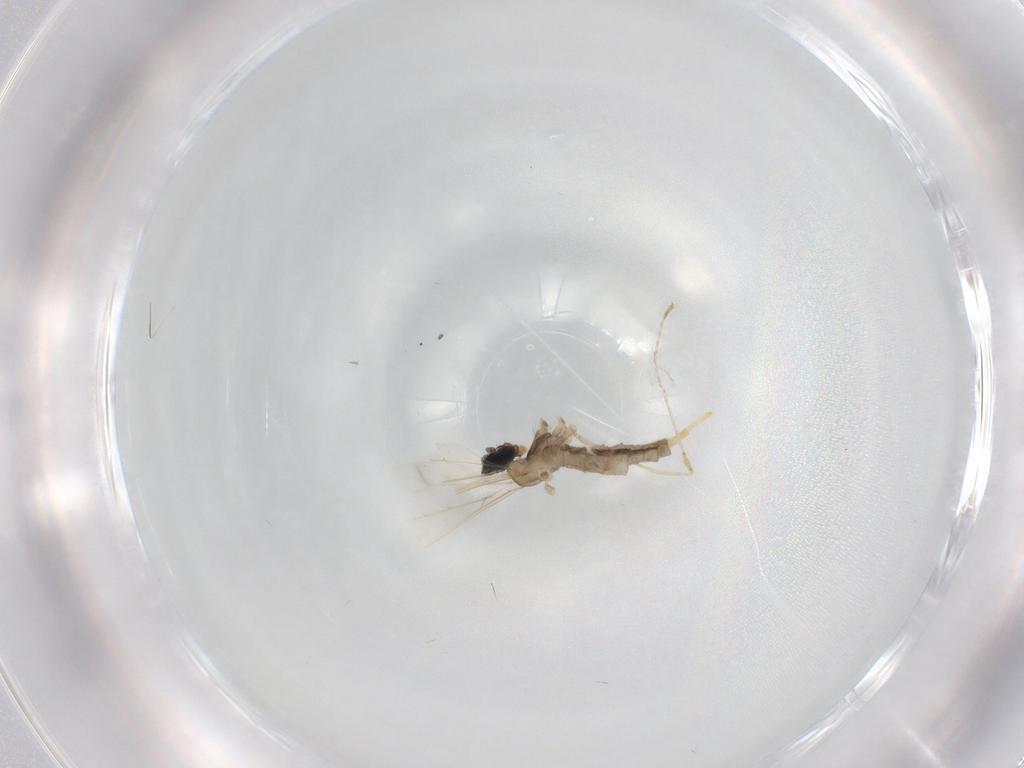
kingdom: Animalia
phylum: Arthropoda
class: Insecta
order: Diptera
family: Cecidomyiidae
